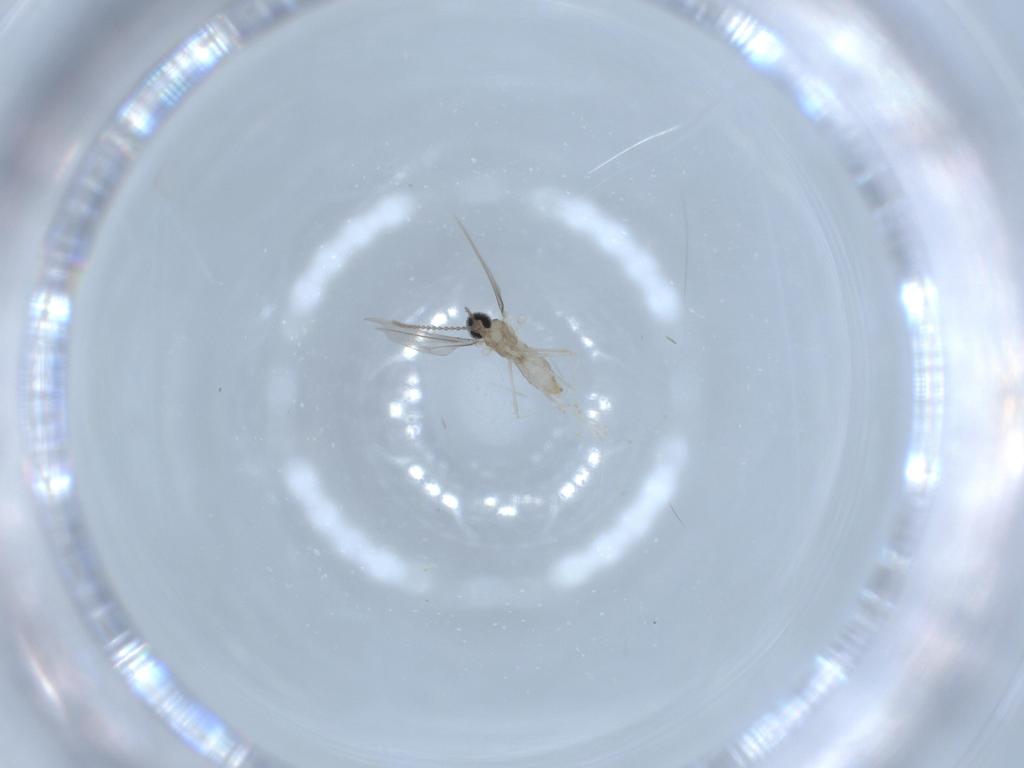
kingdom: Animalia
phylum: Arthropoda
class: Insecta
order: Diptera
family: Cecidomyiidae
